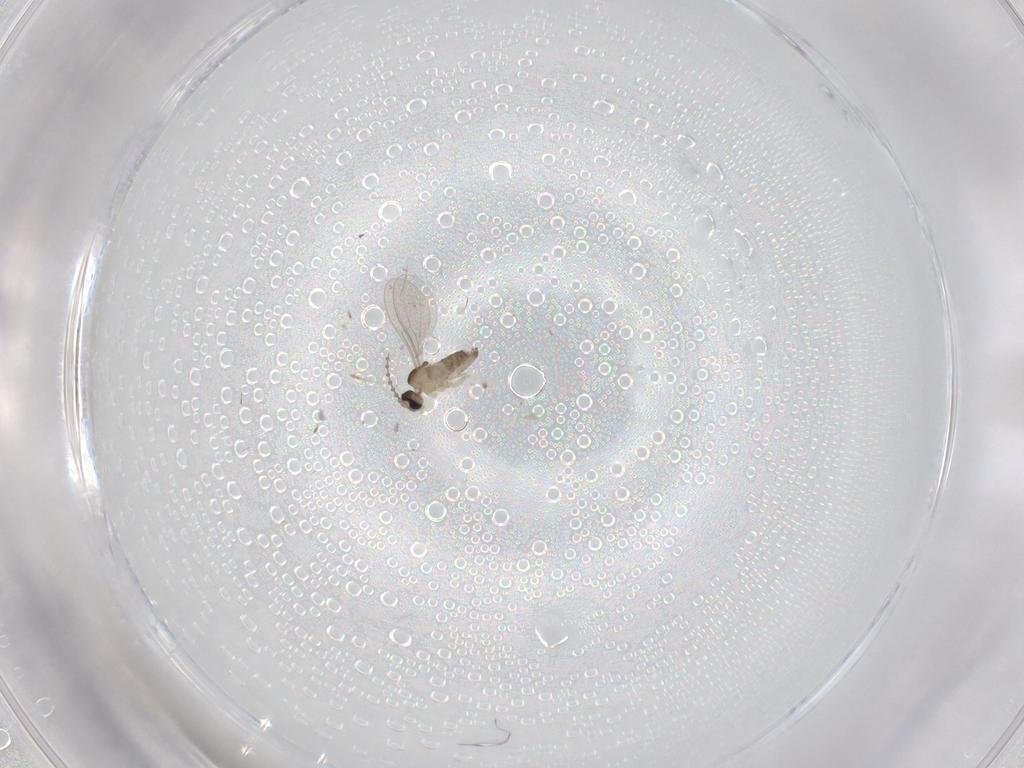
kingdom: Animalia
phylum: Arthropoda
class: Insecta
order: Diptera
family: Cecidomyiidae
